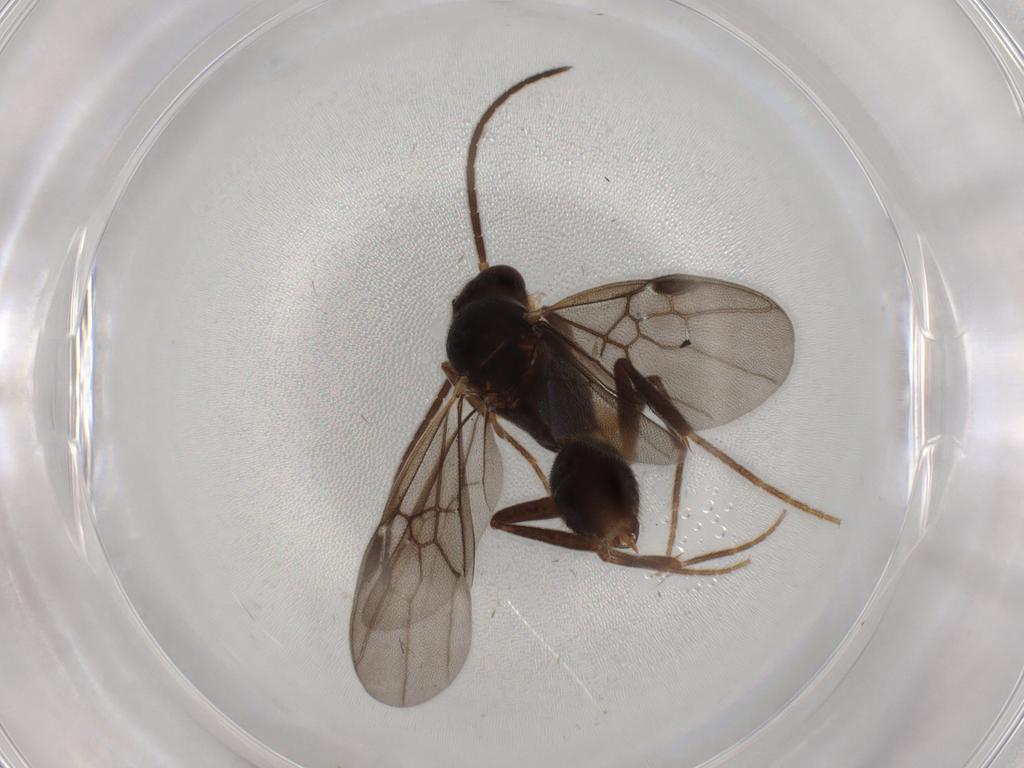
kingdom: Animalia
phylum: Arthropoda
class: Insecta
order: Hymenoptera
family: Formicidae
